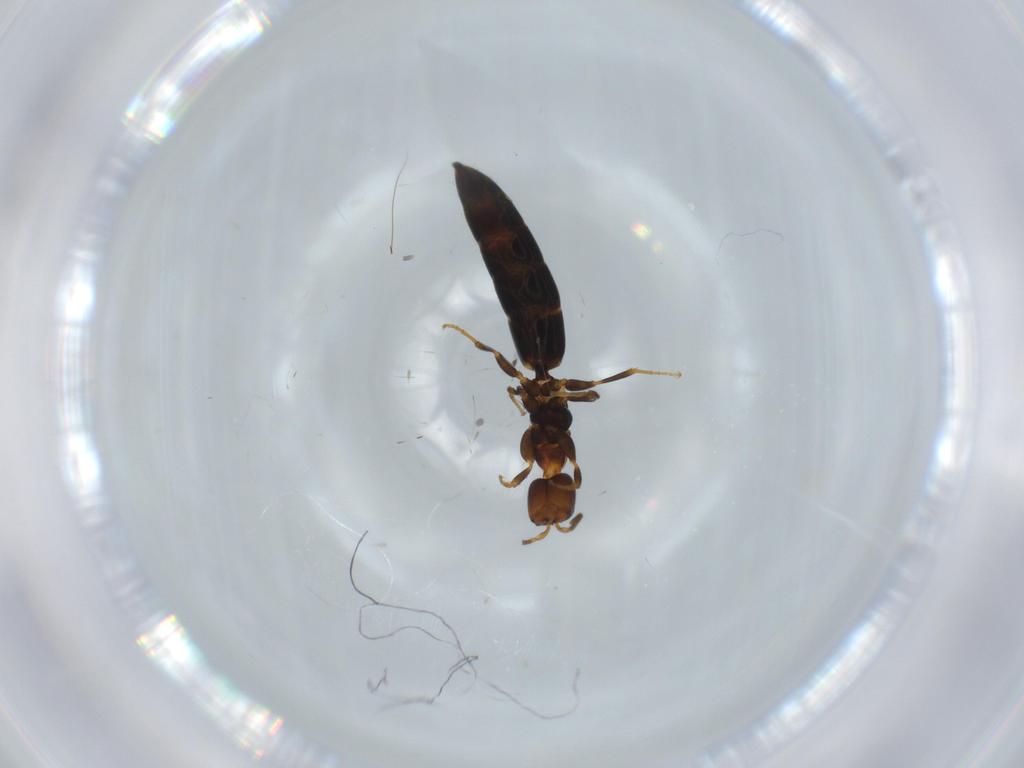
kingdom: Animalia
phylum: Arthropoda
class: Insecta
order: Hymenoptera
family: Bethylidae
